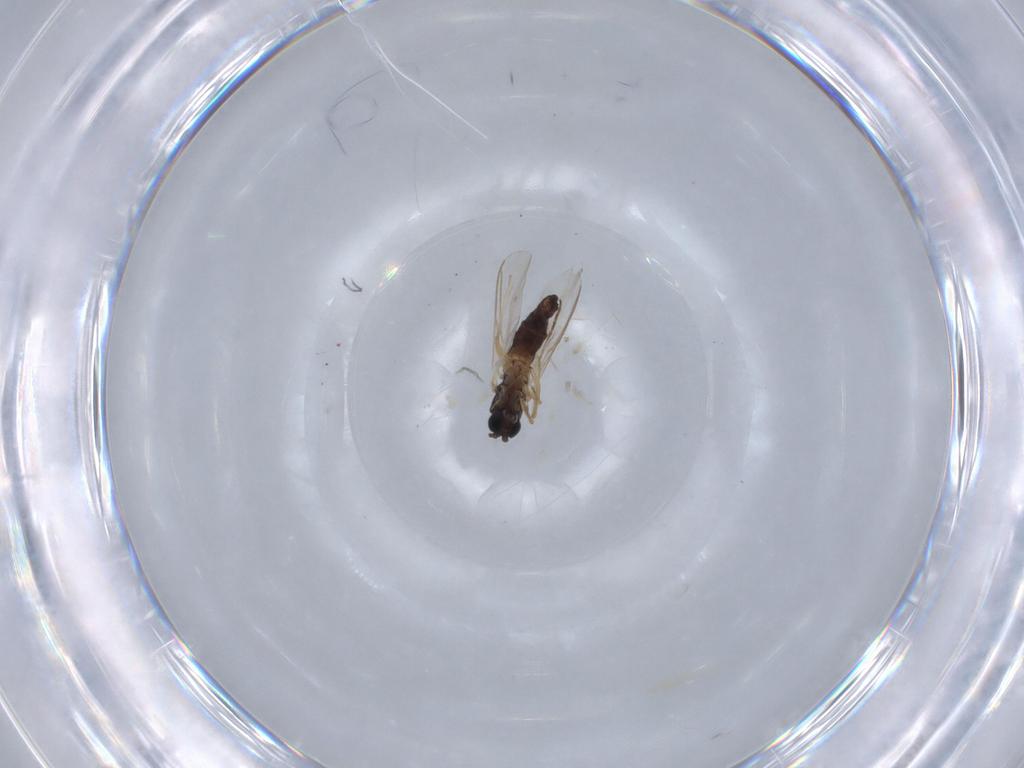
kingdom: Animalia
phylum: Arthropoda
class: Insecta
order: Diptera
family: Sciaridae
